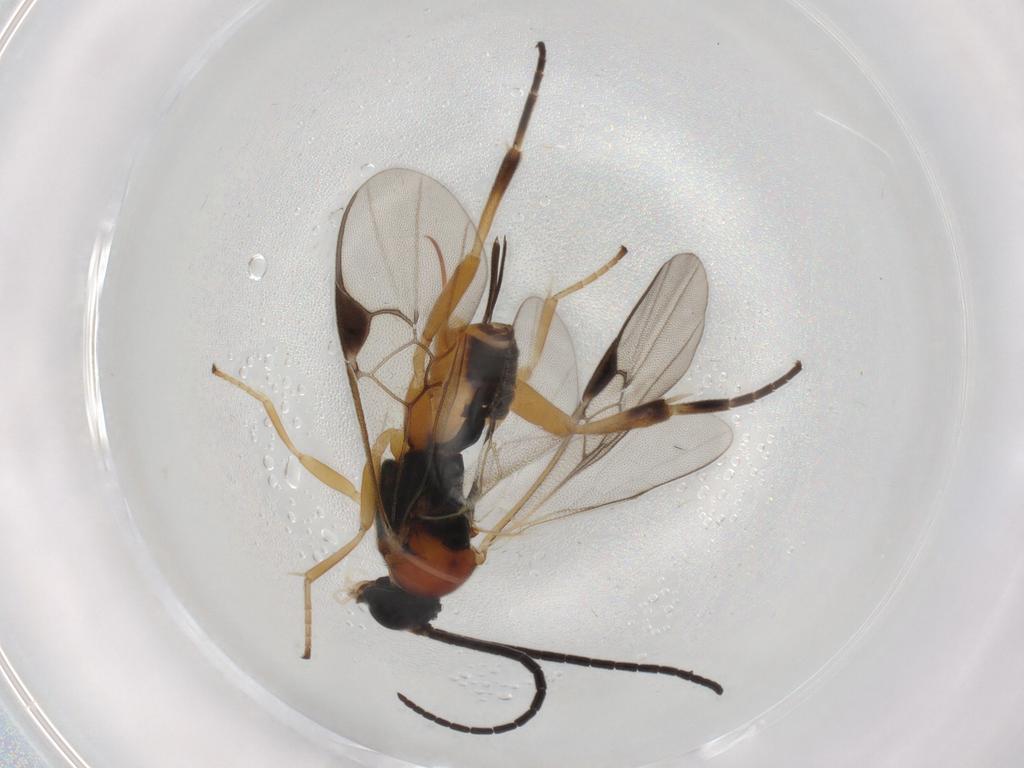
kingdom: Animalia
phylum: Arthropoda
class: Insecta
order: Hymenoptera
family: Braconidae
